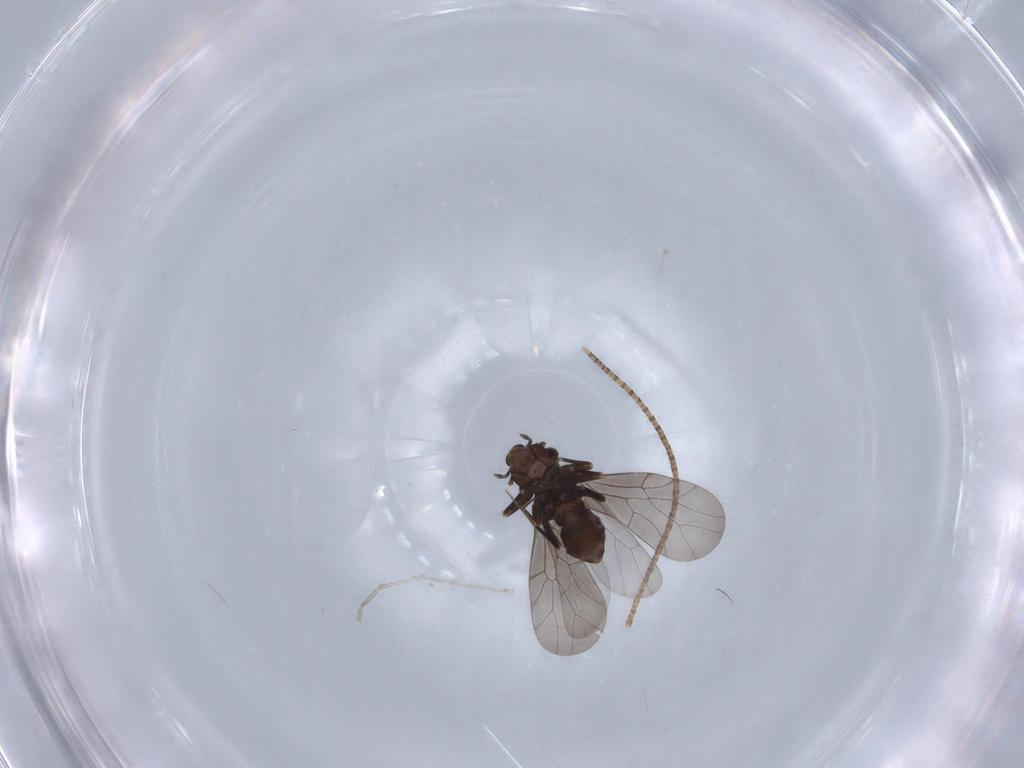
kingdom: Animalia
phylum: Arthropoda
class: Insecta
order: Psocodea
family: Lepidopsocidae
